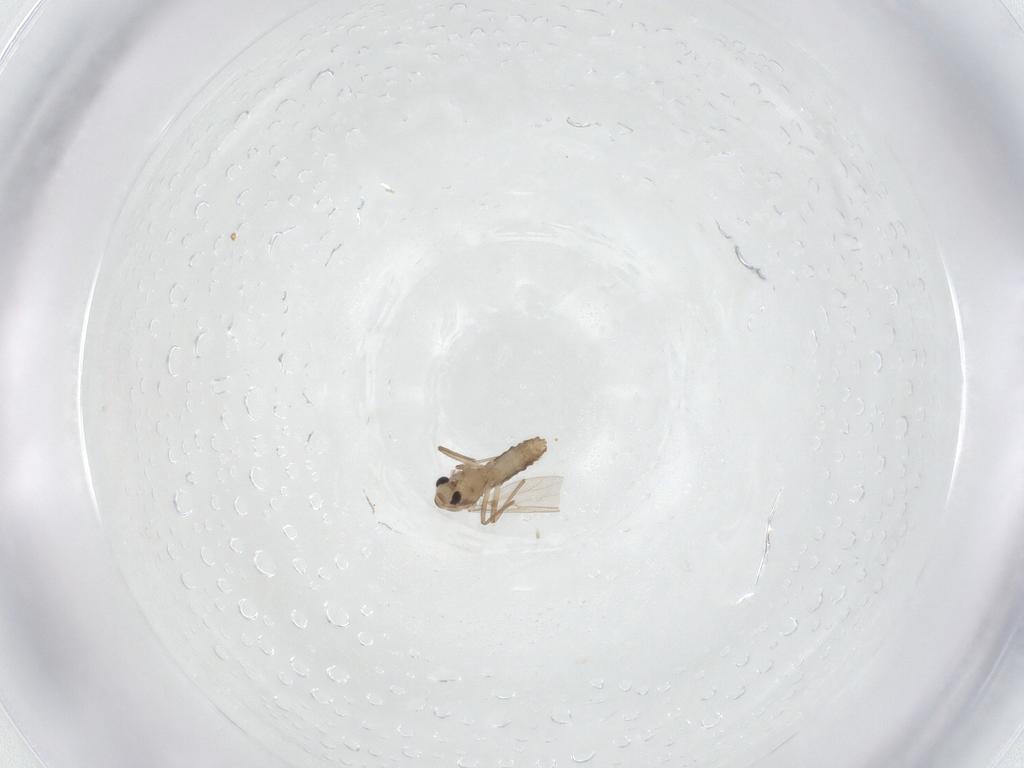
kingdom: Animalia
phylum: Arthropoda
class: Insecta
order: Diptera
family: Chironomidae
